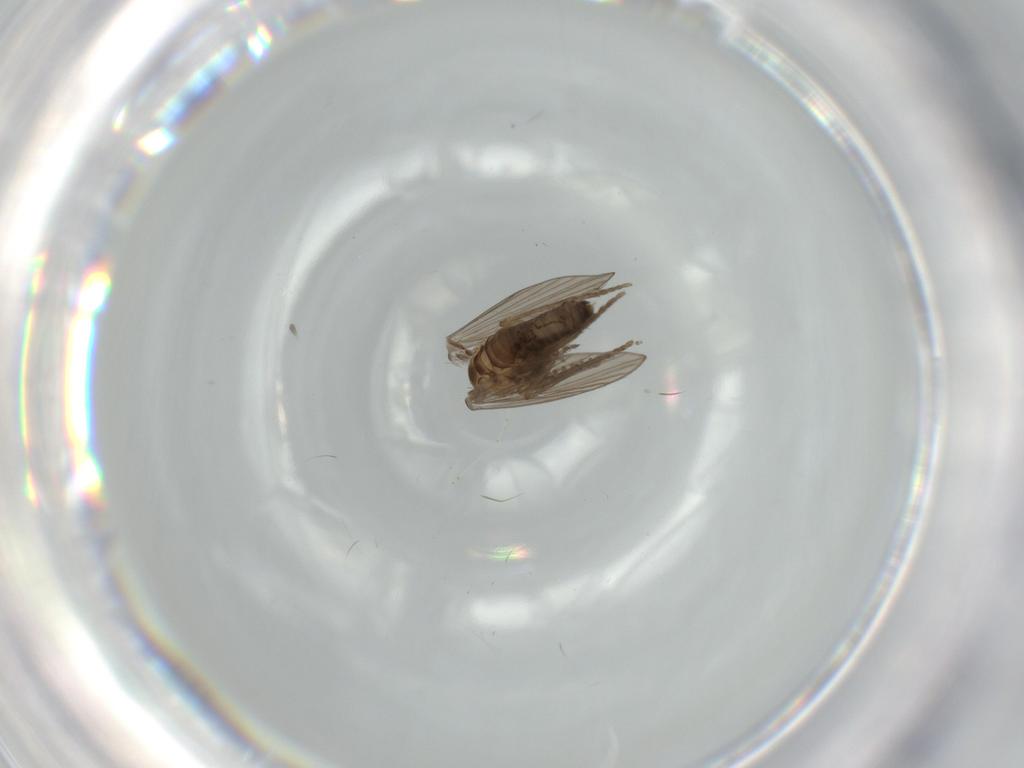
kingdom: Animalia
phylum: Arthropoda
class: Insecta
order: Diptera
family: Psychodidae
